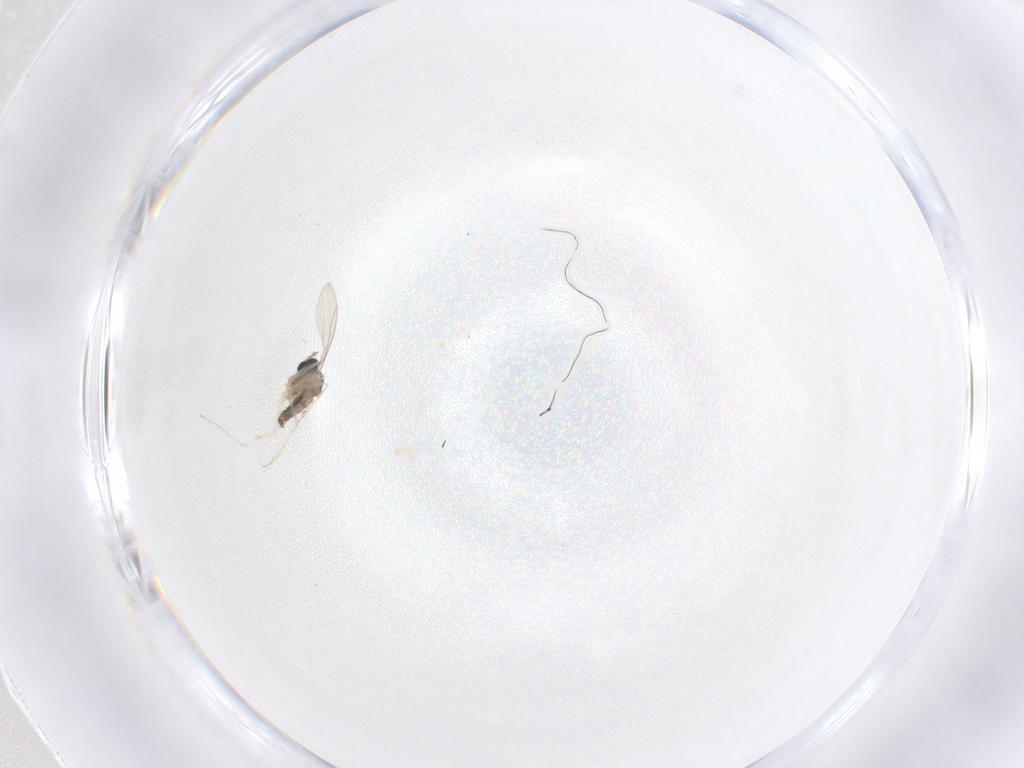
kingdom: Animalia
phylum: Arthropoda
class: Insecta
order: Diptera
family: Cecidomyiidae
